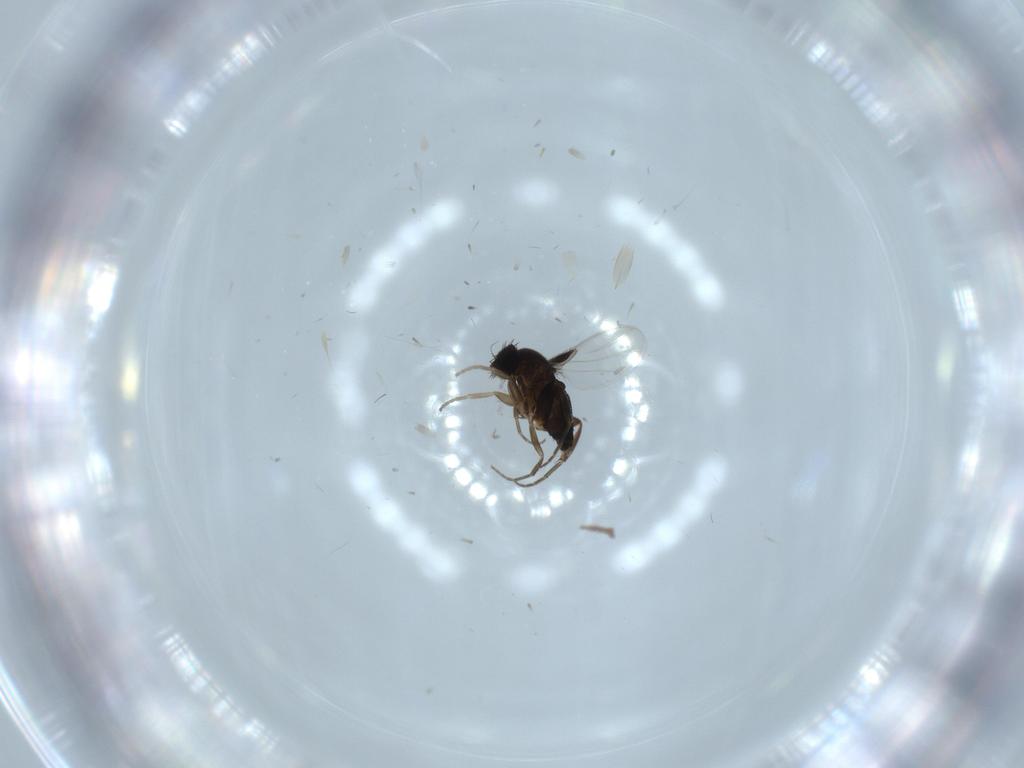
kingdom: Animalia
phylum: Arthropoda
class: Insecta
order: Diptera
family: Phoridae
